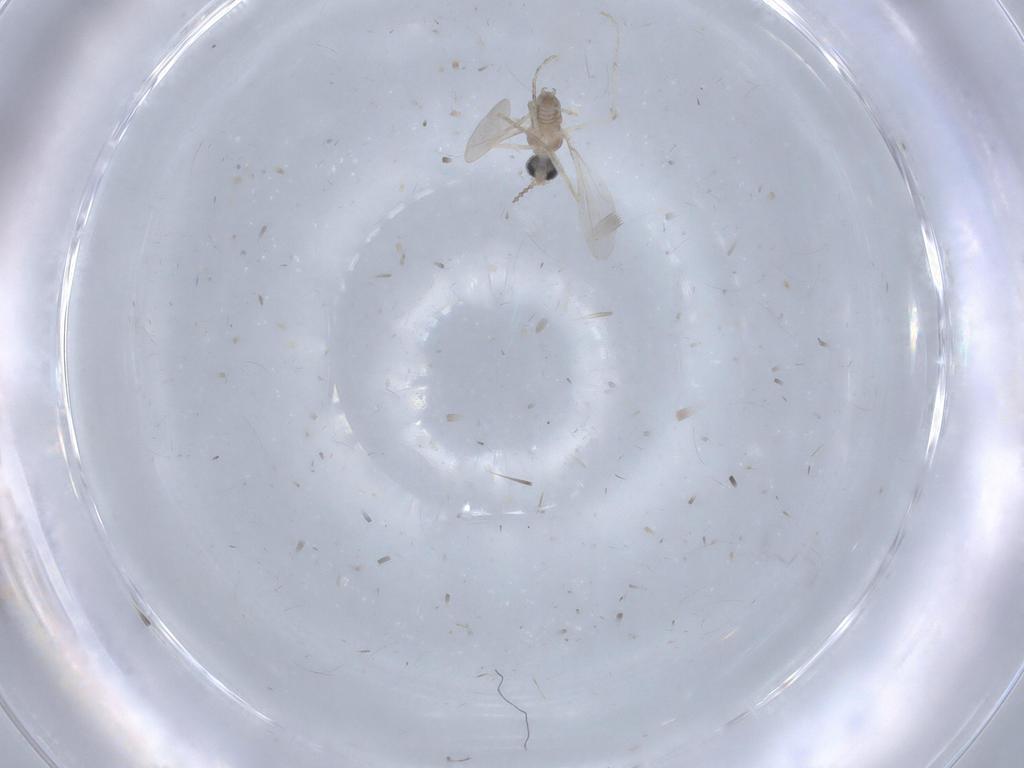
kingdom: Animalia
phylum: Arthropoda
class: Insecta
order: Diptera
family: Cecidomyiidae
